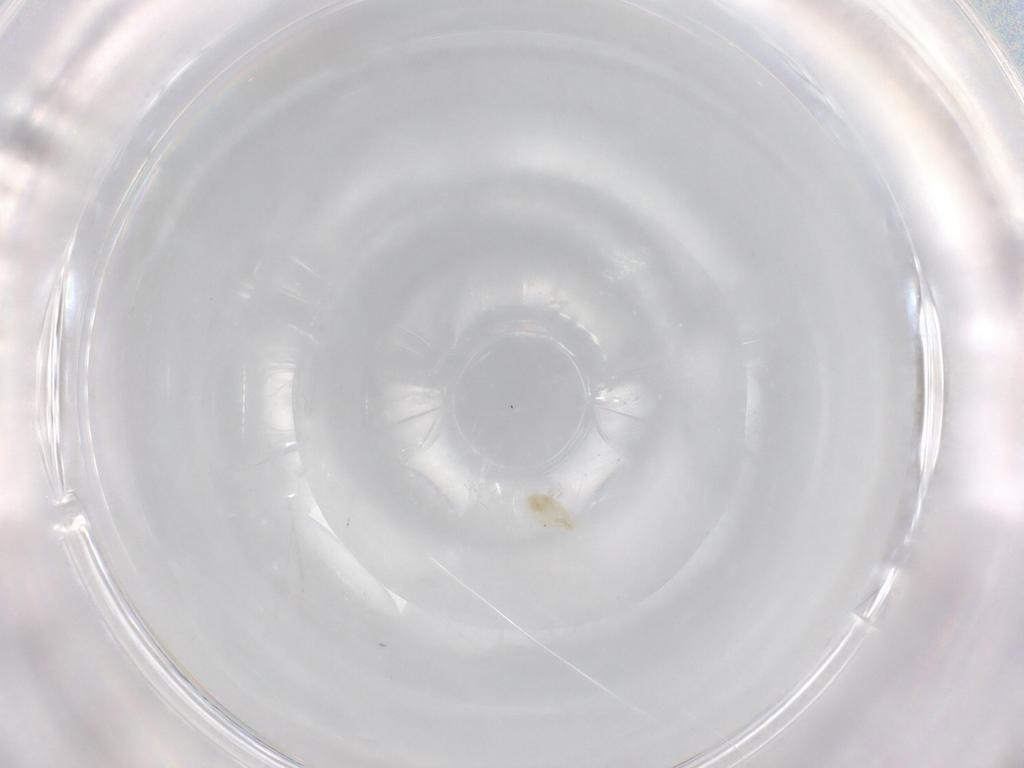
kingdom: Animalia
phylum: Arthropoda
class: Arachnida
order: Trombidiformes
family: Eupodidae
